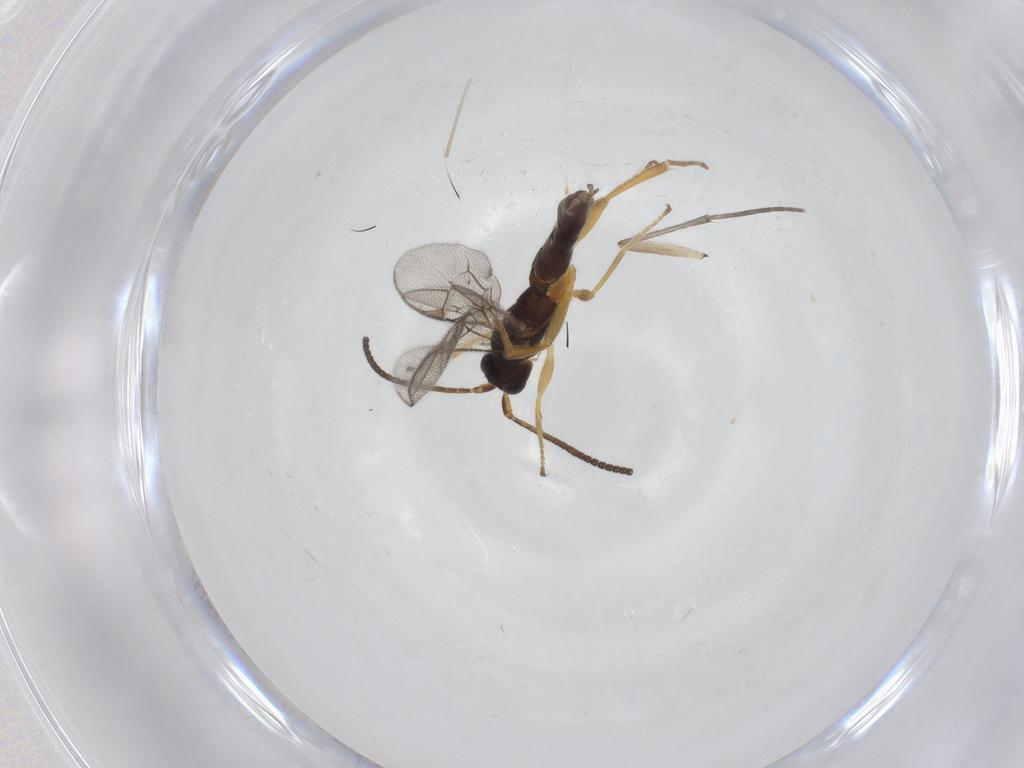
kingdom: Animalia
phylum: Arthropoda
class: Insecta
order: Hymenoptera
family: Ichneumonidae
